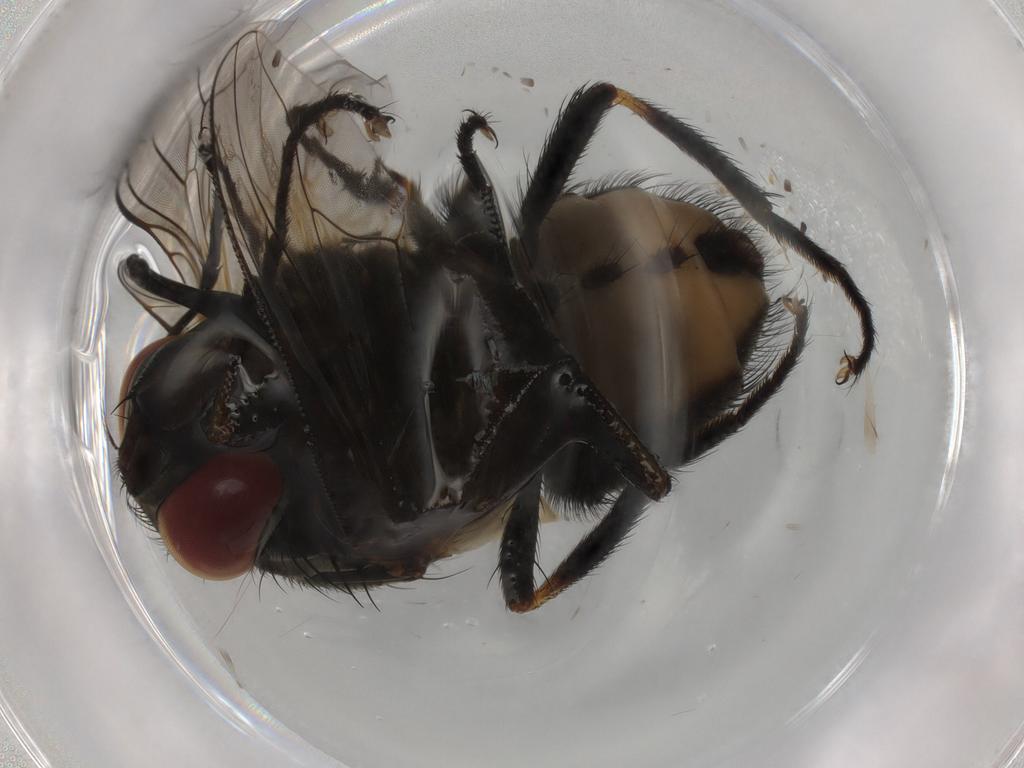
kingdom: Animalia
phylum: Arthropoda
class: Insecta
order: Diptera
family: Muscidae
